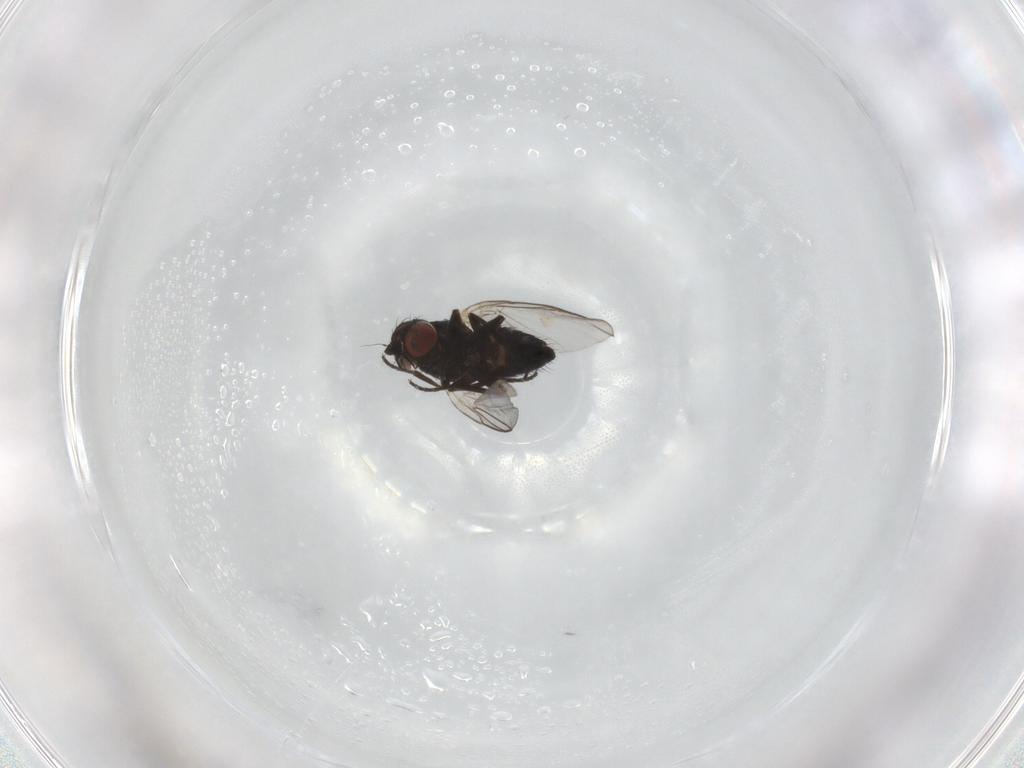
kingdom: Animalia
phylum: Arthropoda
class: Insecta
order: Diptera
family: Agromyzidae
